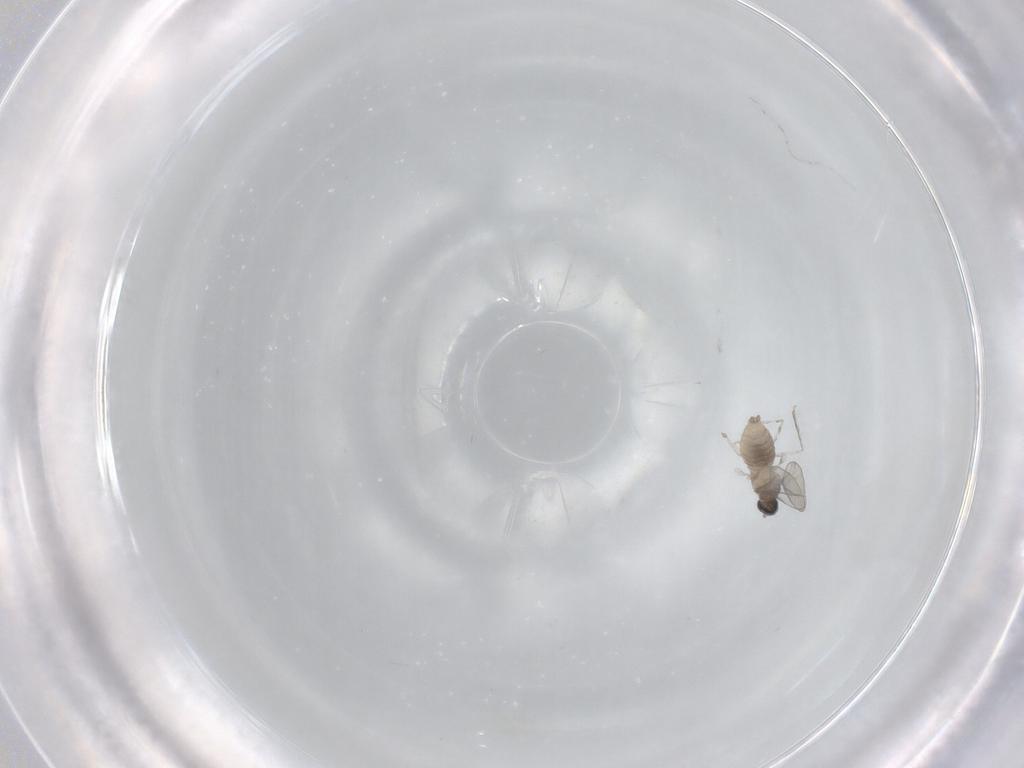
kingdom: Animalia
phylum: Arthropoda
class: Insecta
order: Diptera
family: Cecidomyiidae
